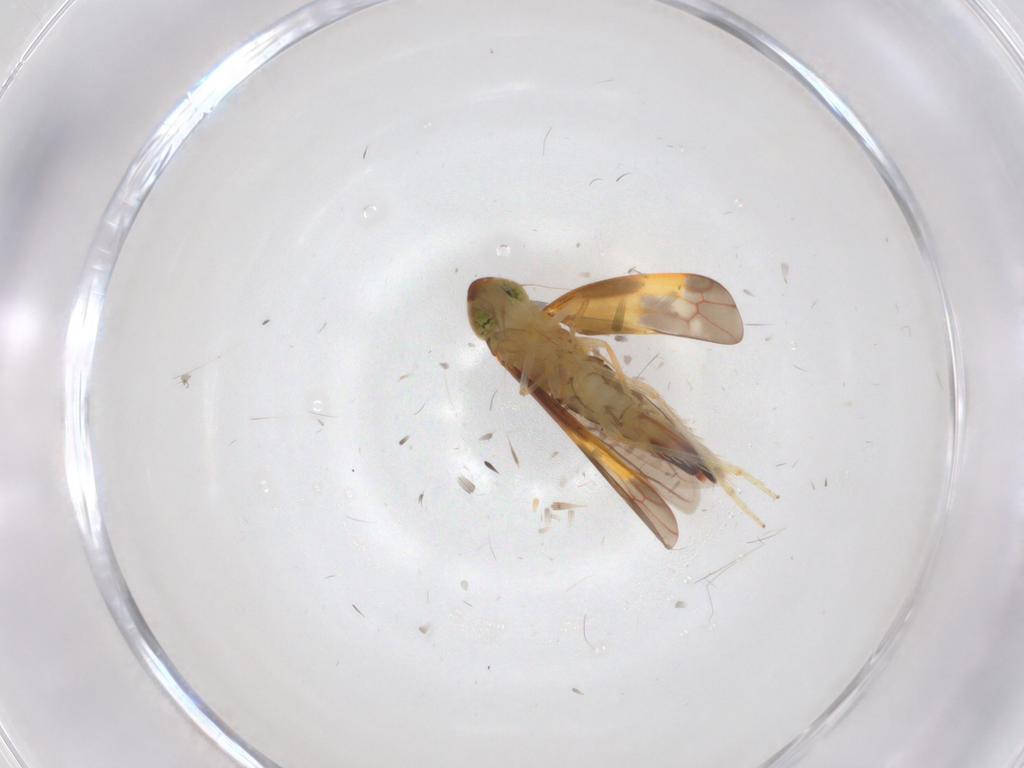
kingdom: Animalia
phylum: Arthropoda
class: Insecta
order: Hemiptera
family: Cicadellidae
